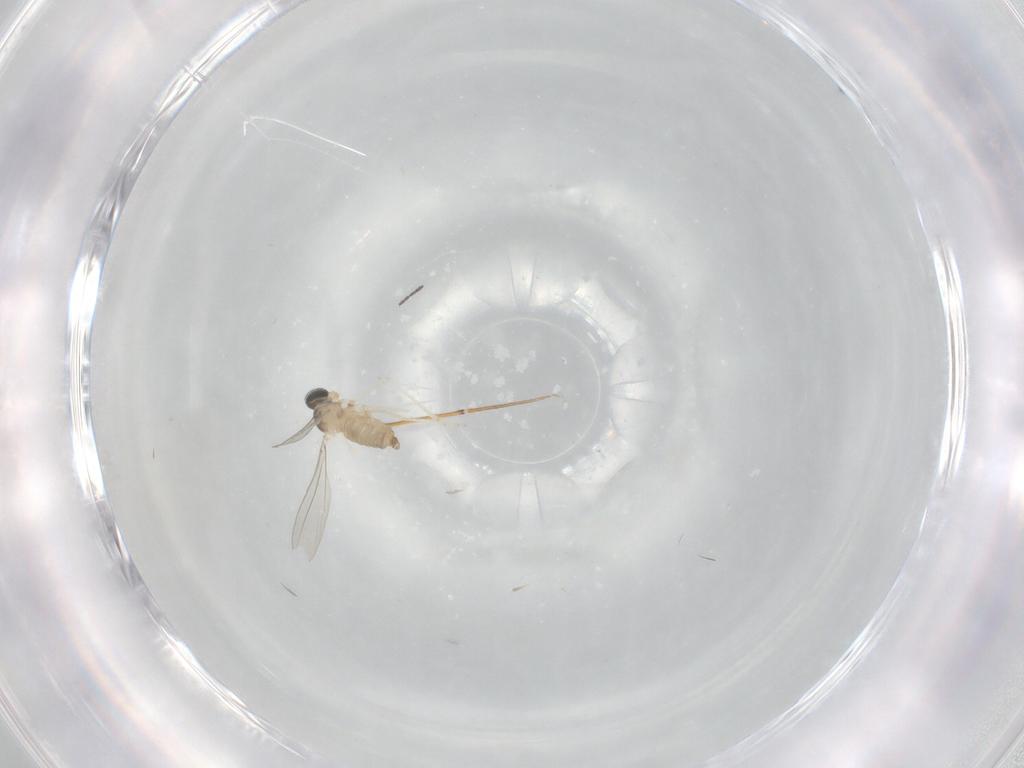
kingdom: Animalia
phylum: Arthropoda
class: Insecta
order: Diptera
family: Cecidomyiidae
